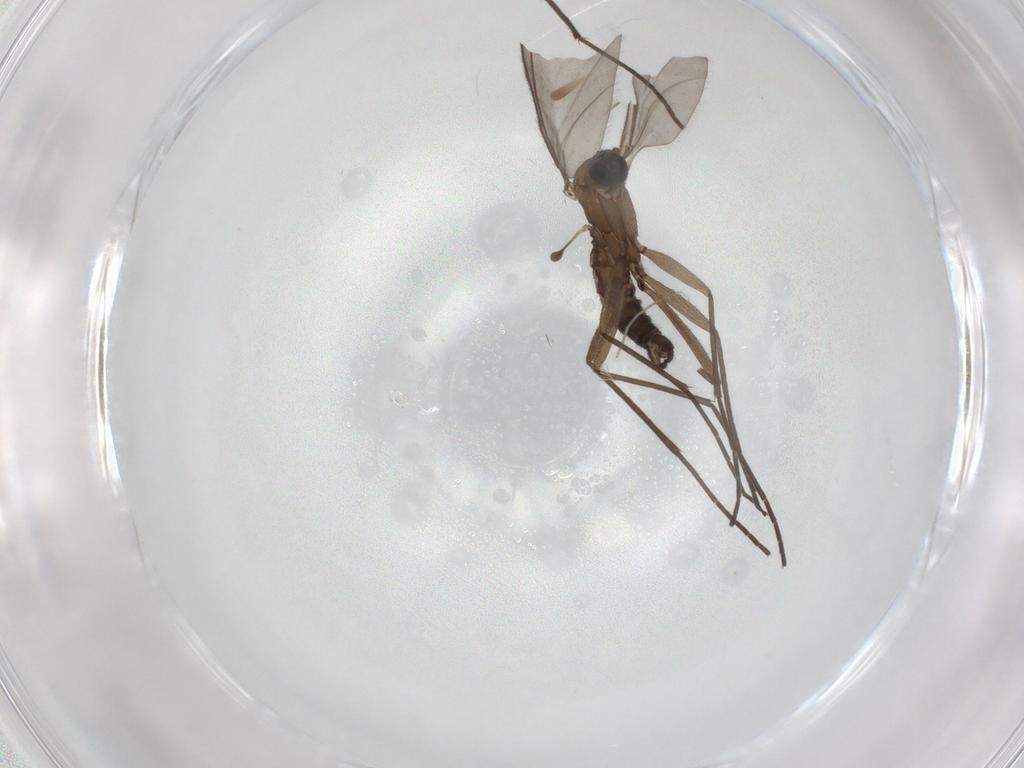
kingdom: Animalia
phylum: Arthropoda
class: Insecta
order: Diptera
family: Sciaridae
